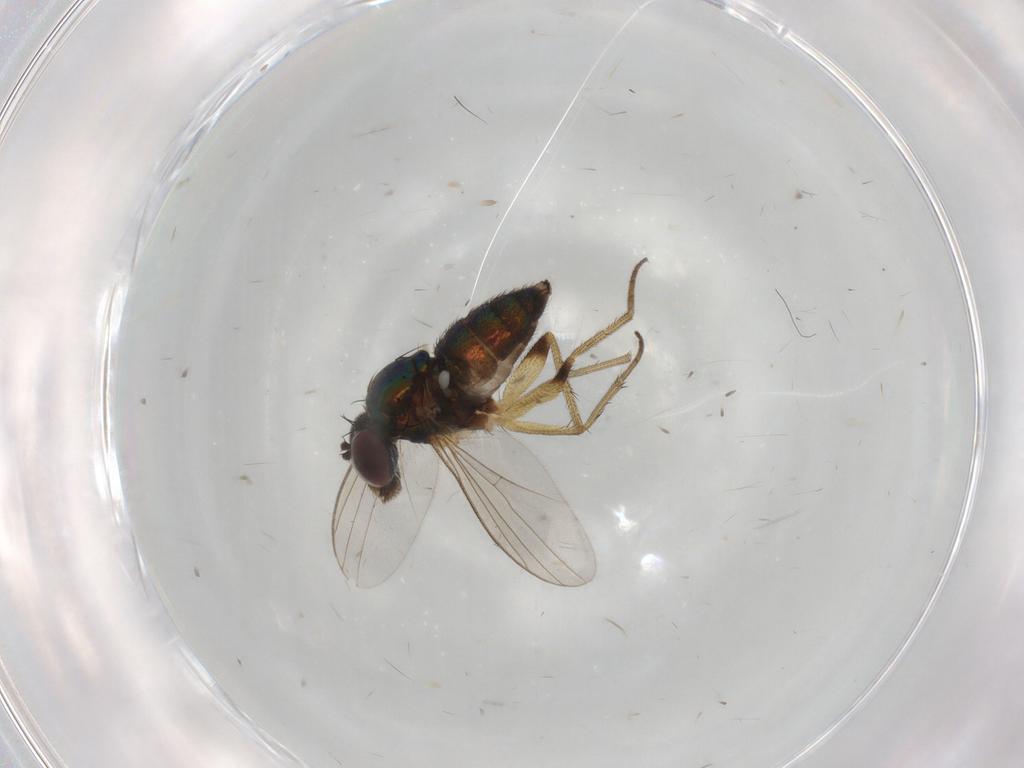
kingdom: Animalia
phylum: Arthropoda
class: Insecta
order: Diptera
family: Dolichopodidae
